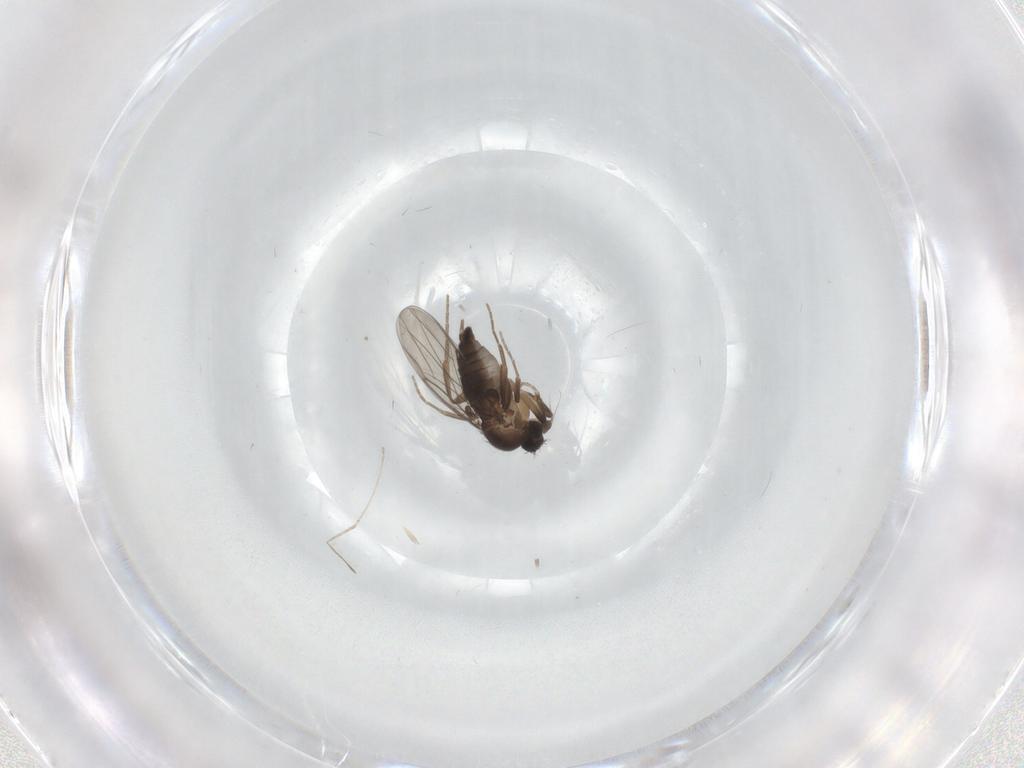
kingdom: Animalia
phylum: Arthropoda
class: Insecta
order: Diptera
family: Phoridae
